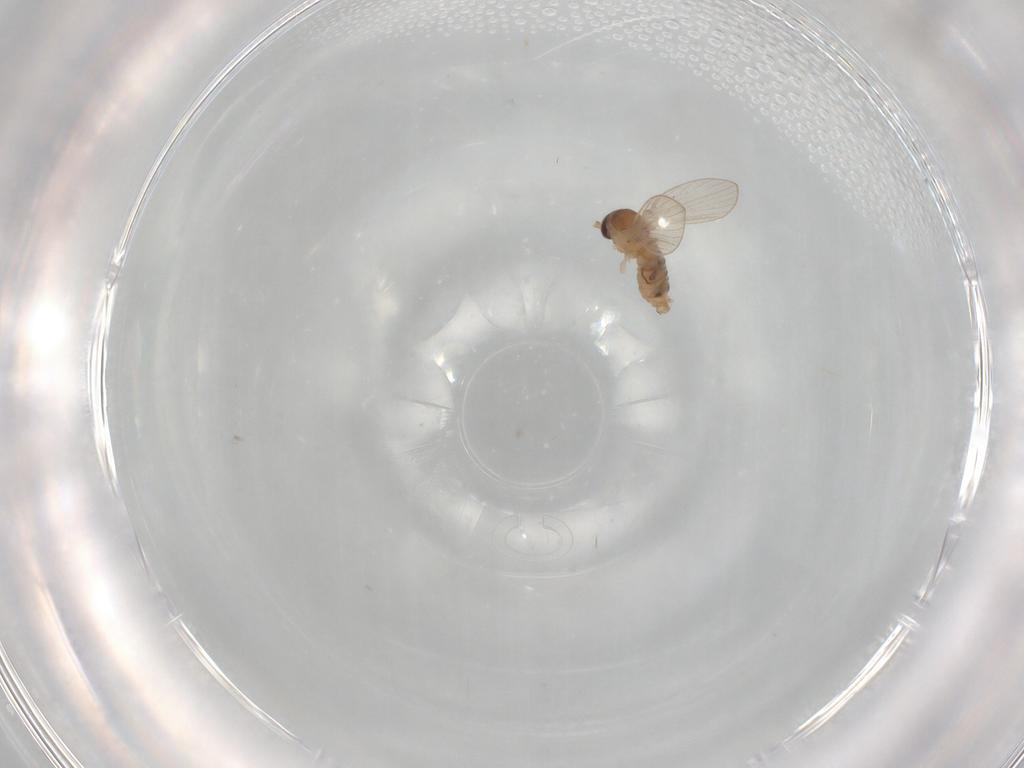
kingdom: Animalia
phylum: Arthropoda
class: Insecta
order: Diptera
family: Psychodidae
